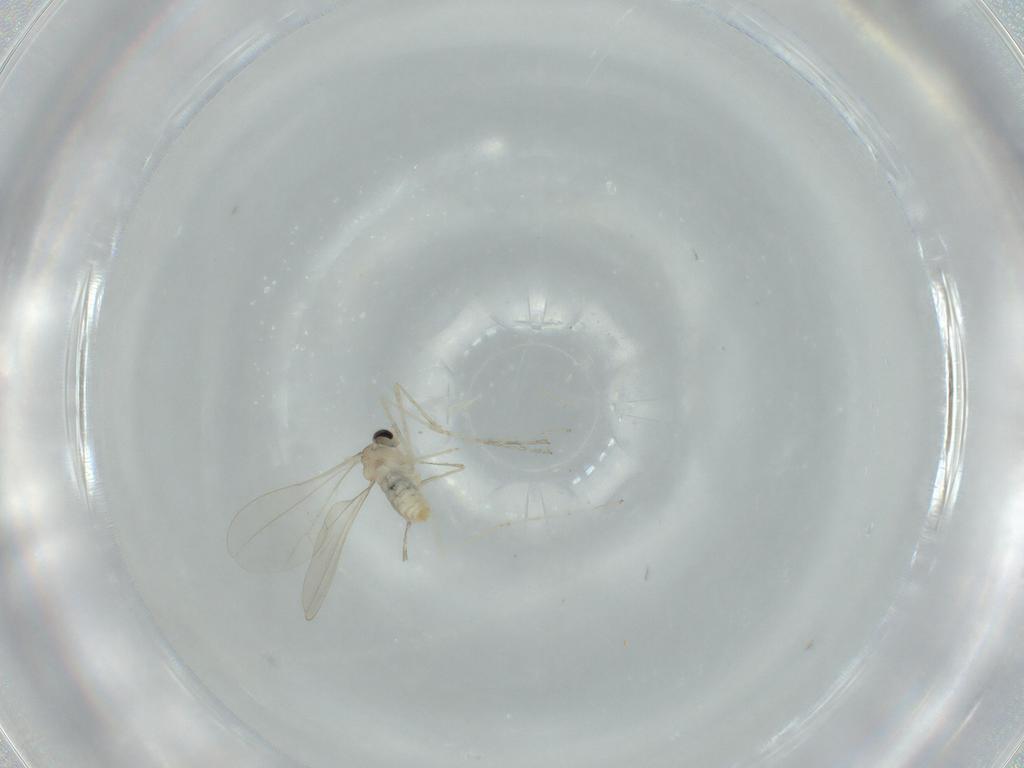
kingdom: Animalia
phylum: Arthropoda
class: Insecta
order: Diptera
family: Cecidomyiidae
